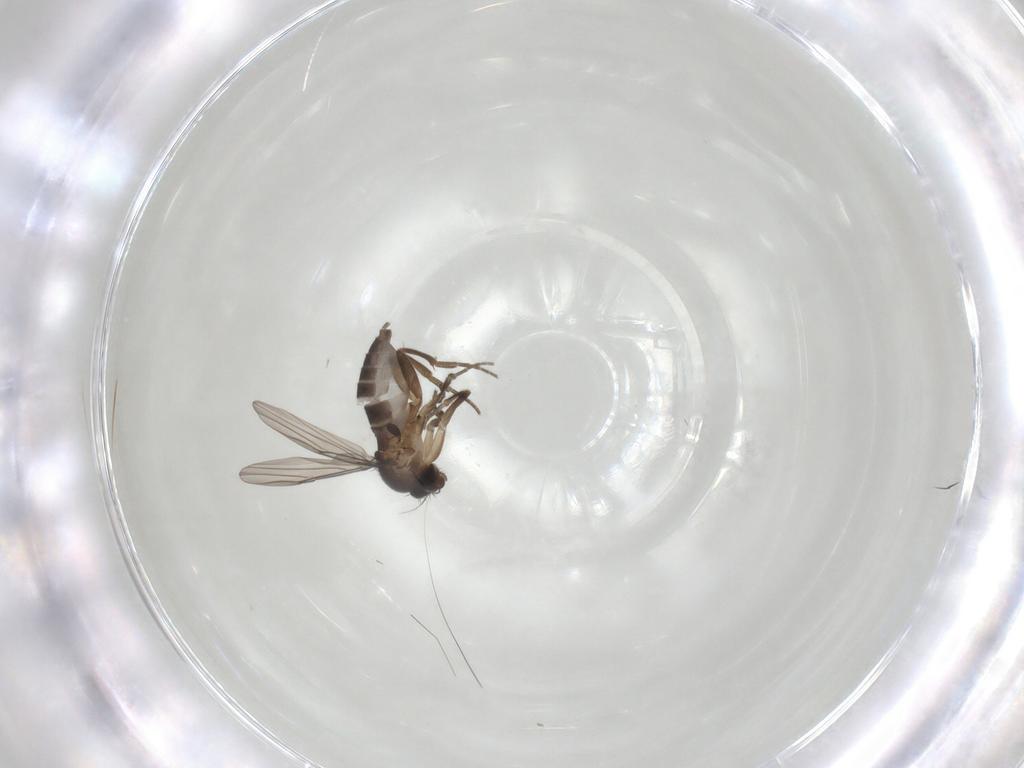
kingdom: Animalia
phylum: Arthropoda
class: Insecta
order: Diptera
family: Phoridae
